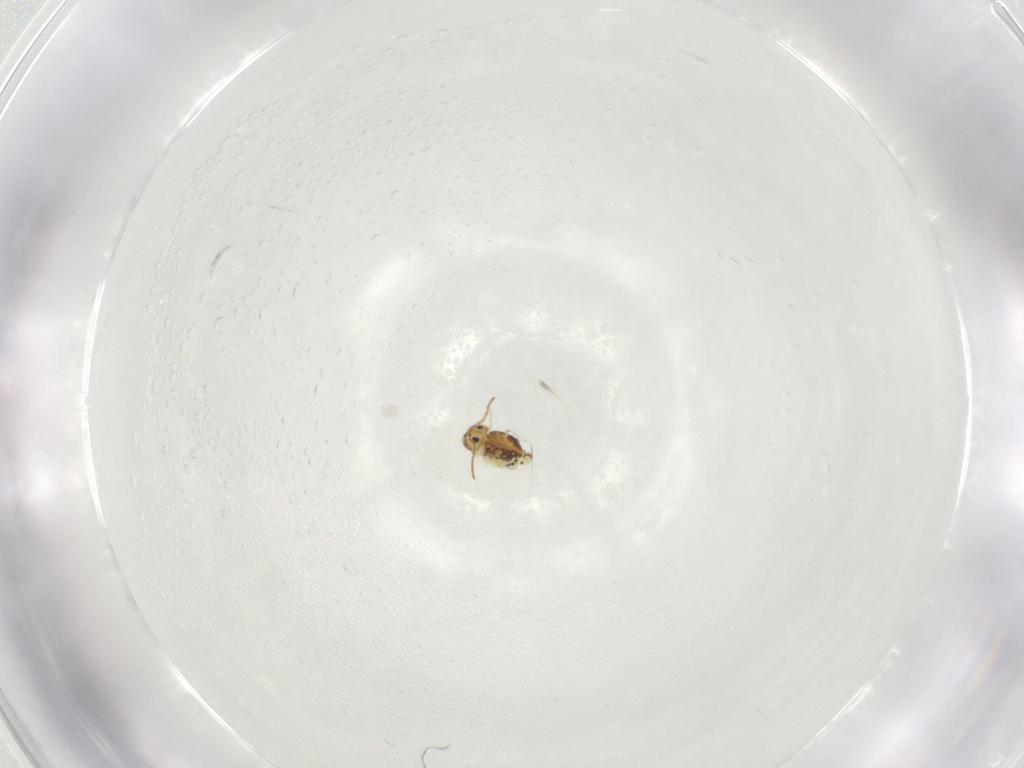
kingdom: Animalia
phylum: Arthropoda
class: Collembola
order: Symphypleona
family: Bourletiellidae
